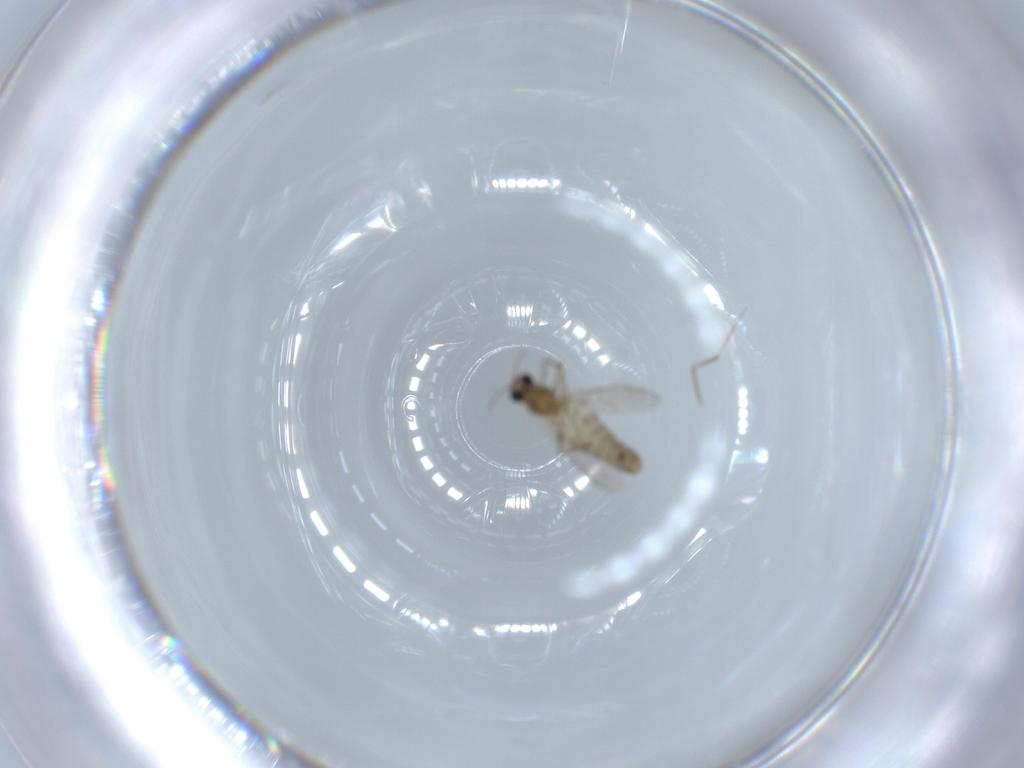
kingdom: Animalia
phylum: Arthropoda
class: Insecta
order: Diptera
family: Chironomidae
